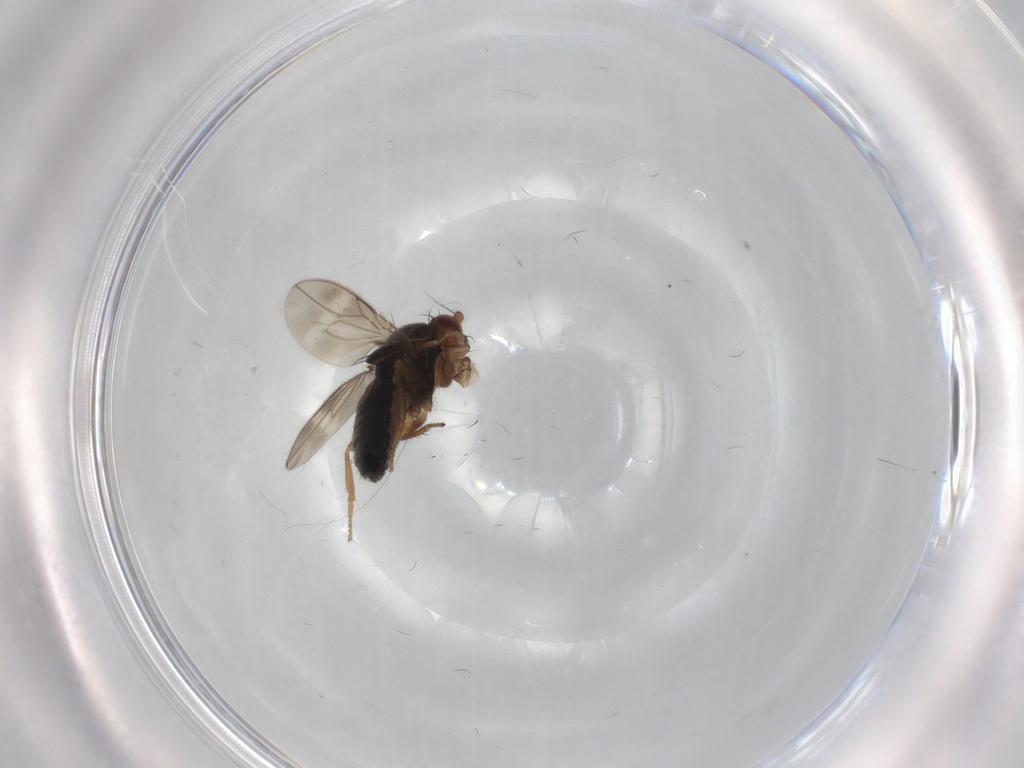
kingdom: Animalia
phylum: Arthropoda
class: Insecta
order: Diptera
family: Sphaeroceridae
